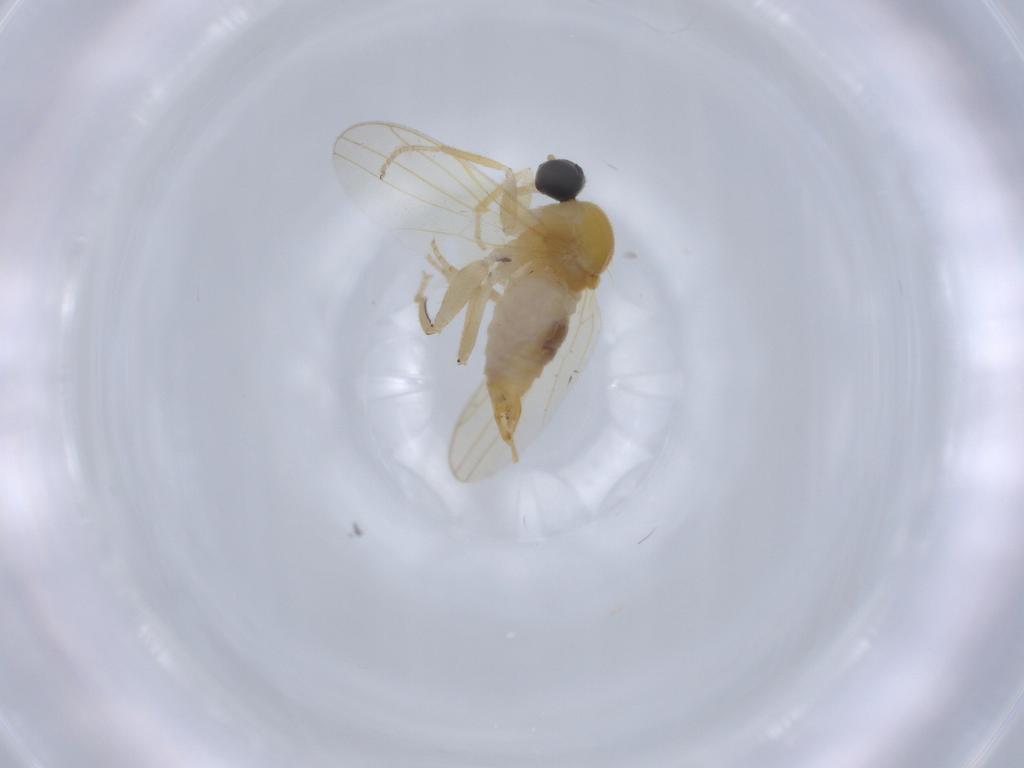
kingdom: Animalia
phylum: Arthropoda
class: Insecta
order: Diptera
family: Hybotidae
